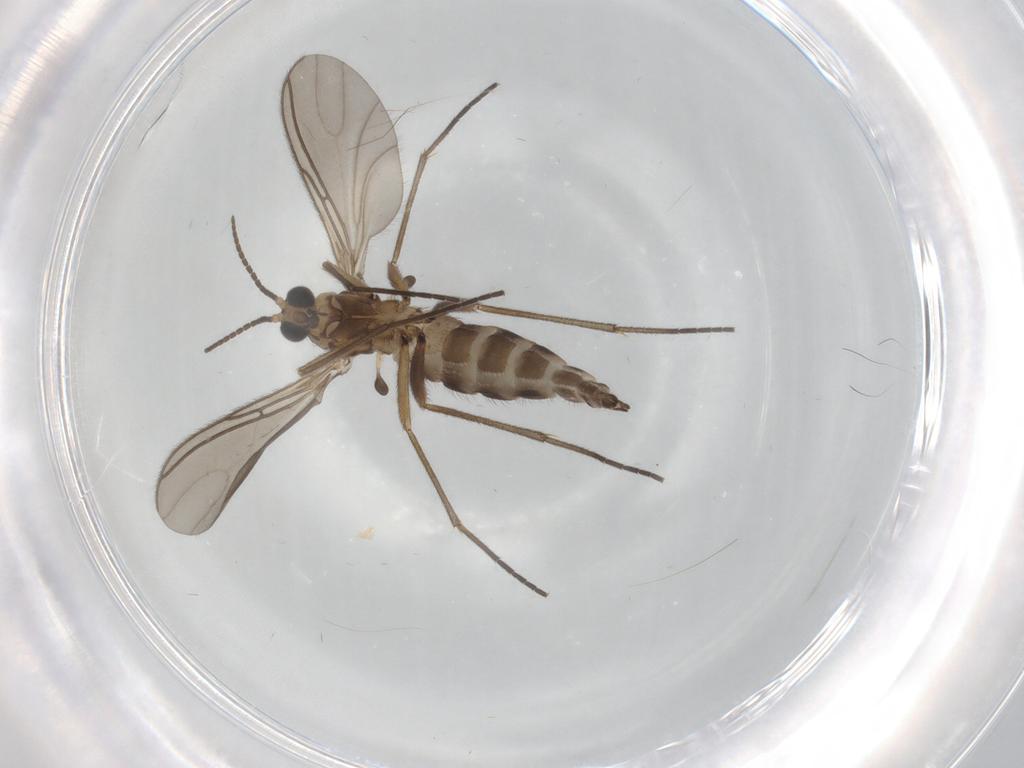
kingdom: Animalia
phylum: Arthropoda
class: Insecta
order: Diptera
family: Sciaridae
